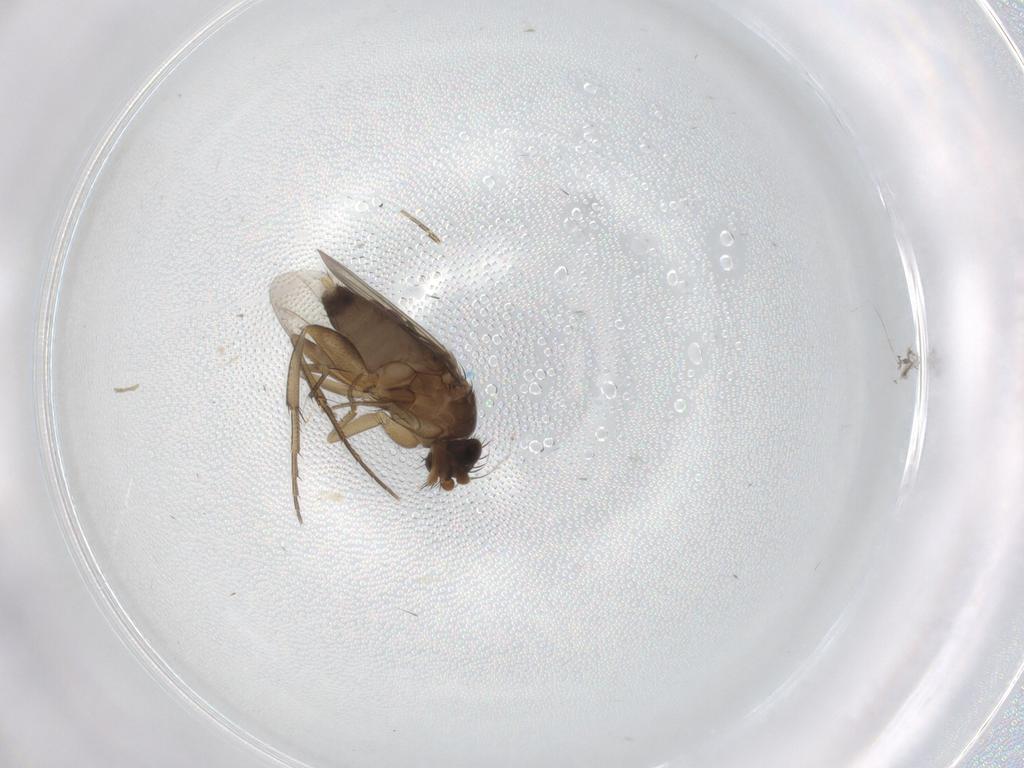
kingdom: Animalia
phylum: Arthropoda
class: Insecta
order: Diptera
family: Phoridae
